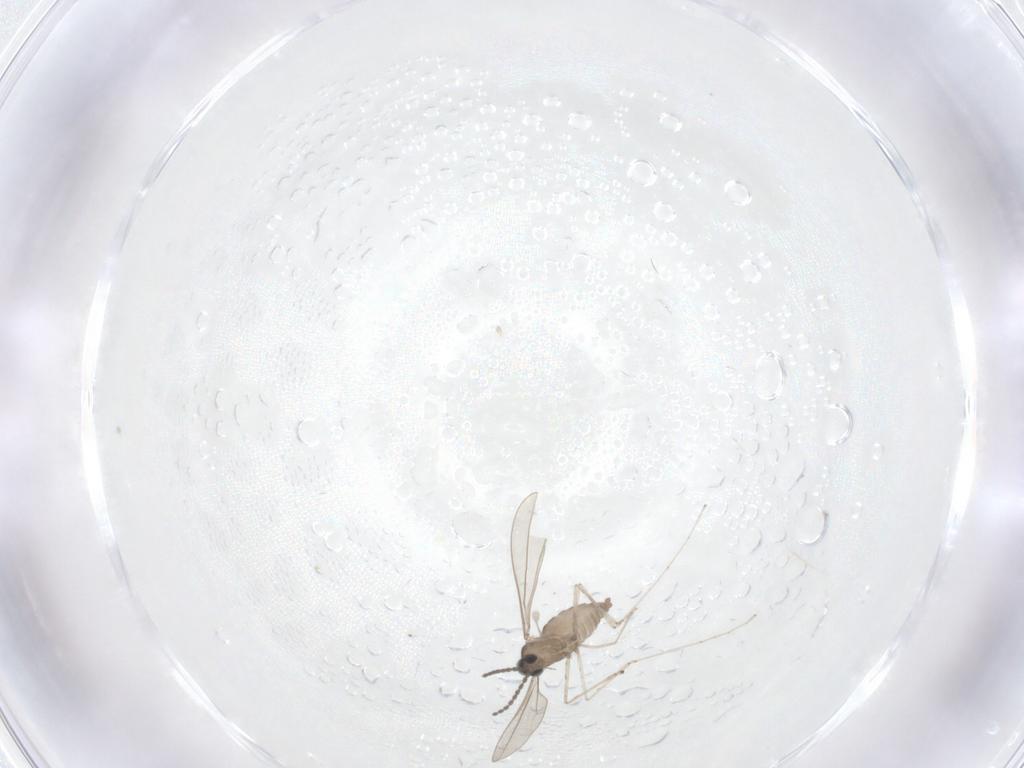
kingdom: Animalia
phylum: Arthropoda
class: Insecta
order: Diptera
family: Cecidomyiidae
